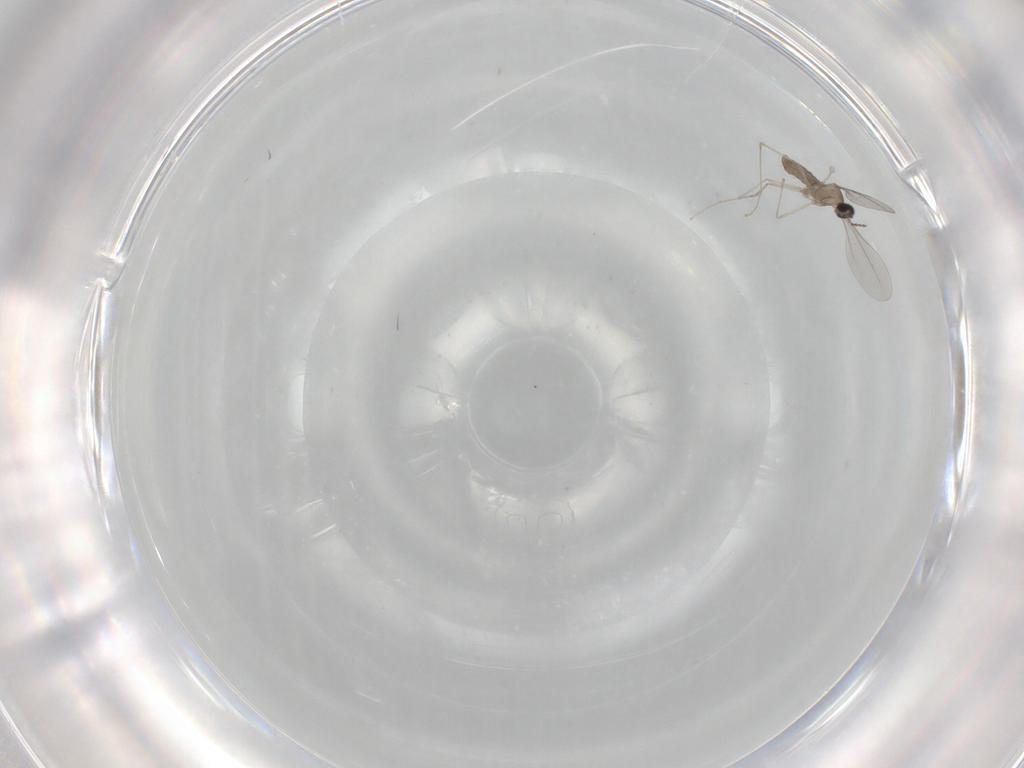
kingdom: Animalia
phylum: Arthropoda
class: Insecta
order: Diptera
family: Cecidomyiidae
